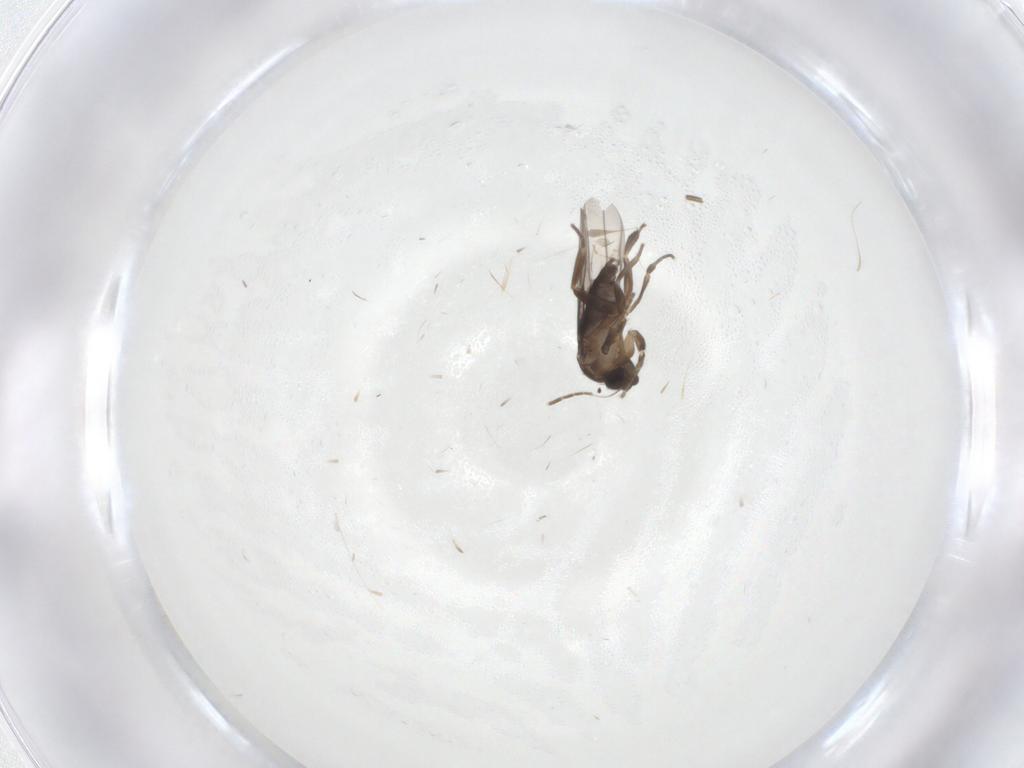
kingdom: Animalia
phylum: Arthropoda
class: Insecta
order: Diptera
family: Phoridae
